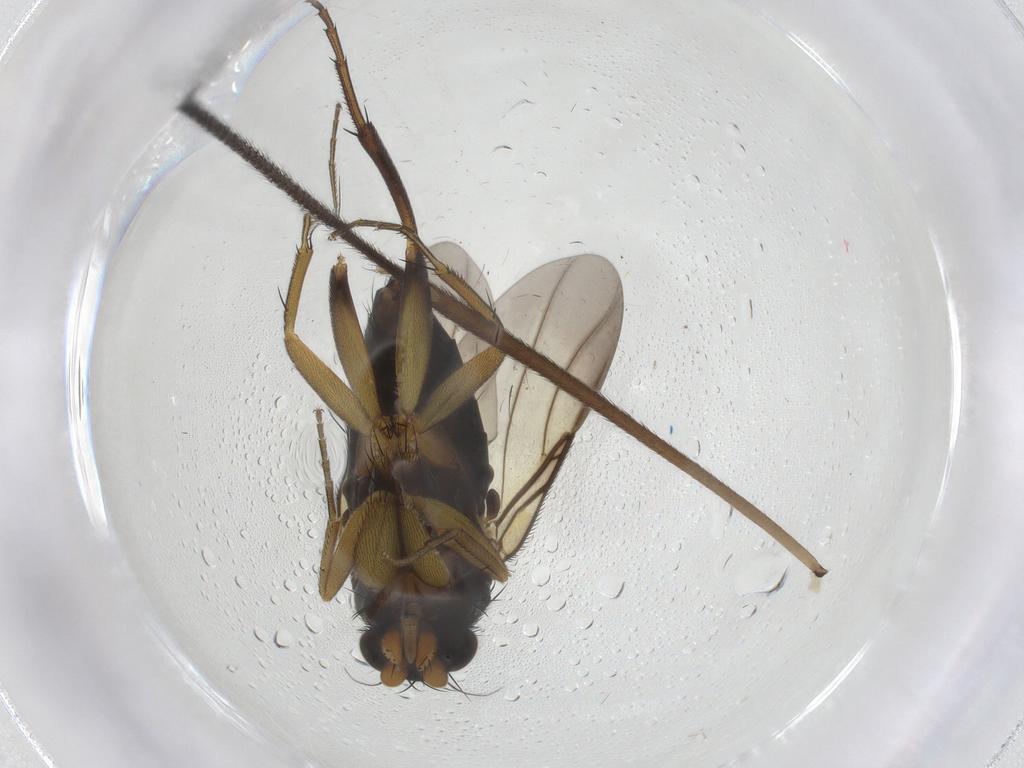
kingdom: Animalia
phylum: Arthropoda
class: Insecta
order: Diptera
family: Phoridae
